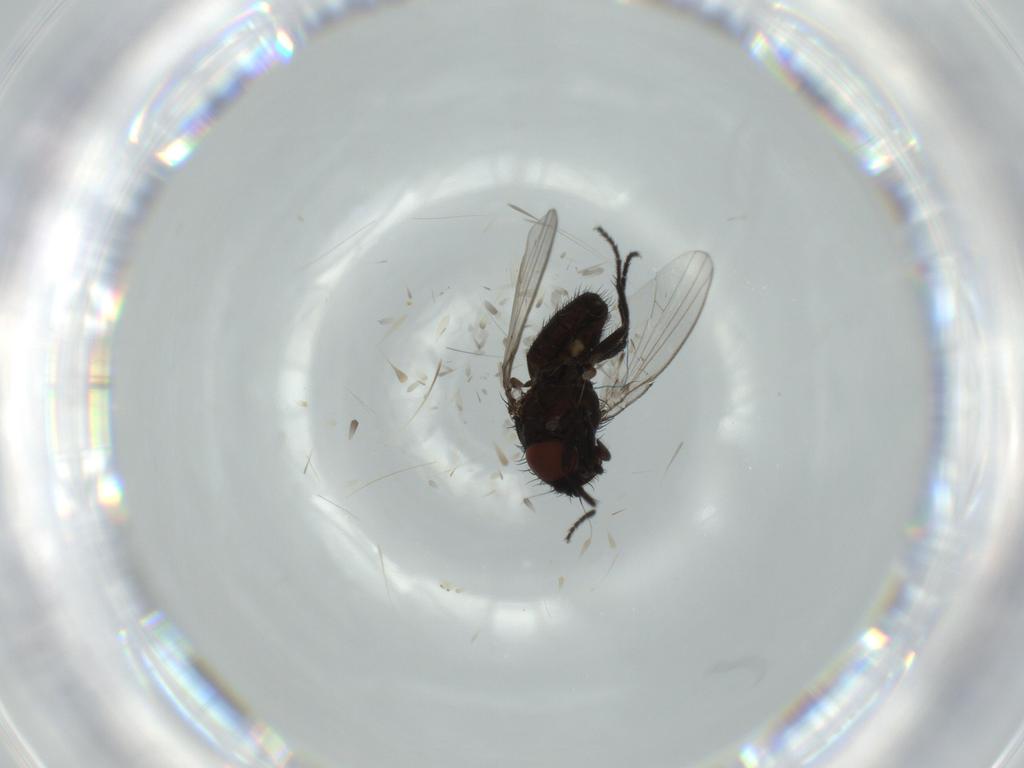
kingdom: Animalia
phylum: Arthropoda
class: Insecta
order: Diptera
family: Milichiidae
